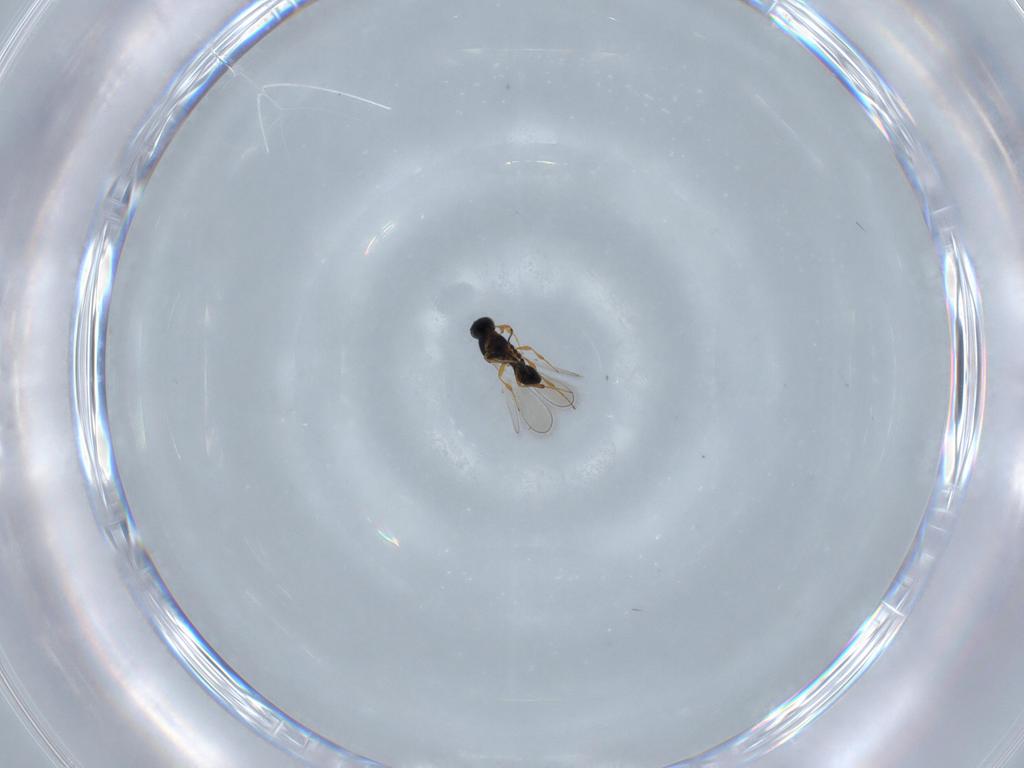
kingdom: Animalia
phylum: Arthropoda
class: Insecta
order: Hymenoptera
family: Platygastridae
